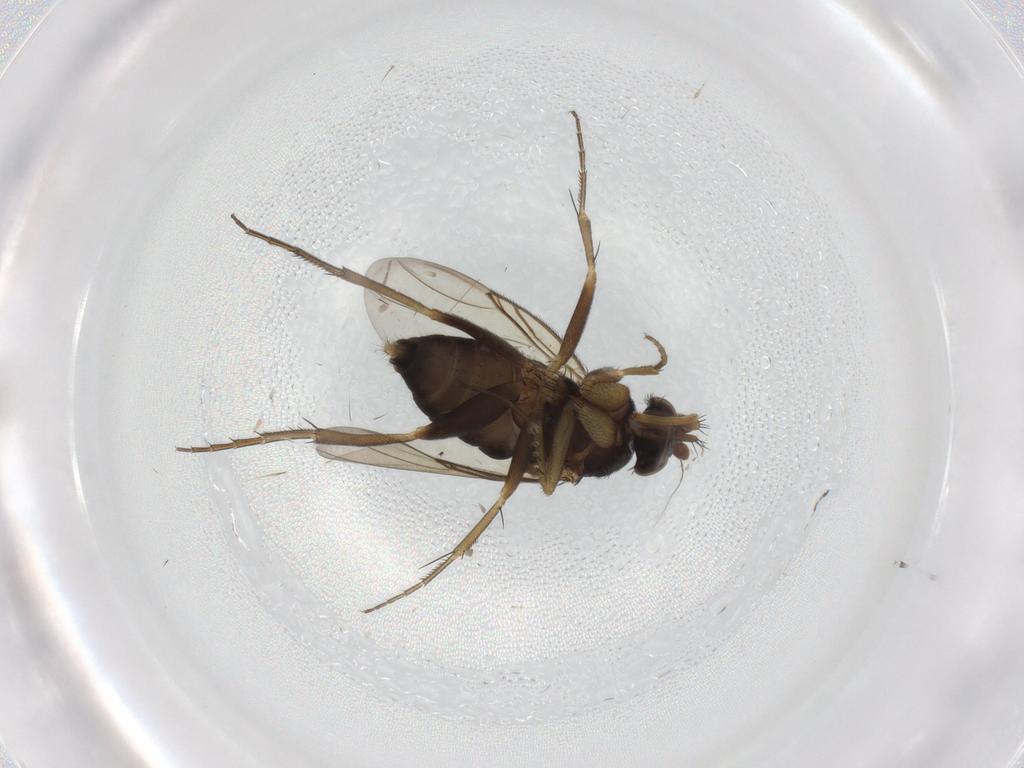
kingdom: Animalia
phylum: Arthropoda
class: Insecta
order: Diptera
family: Phoridae
